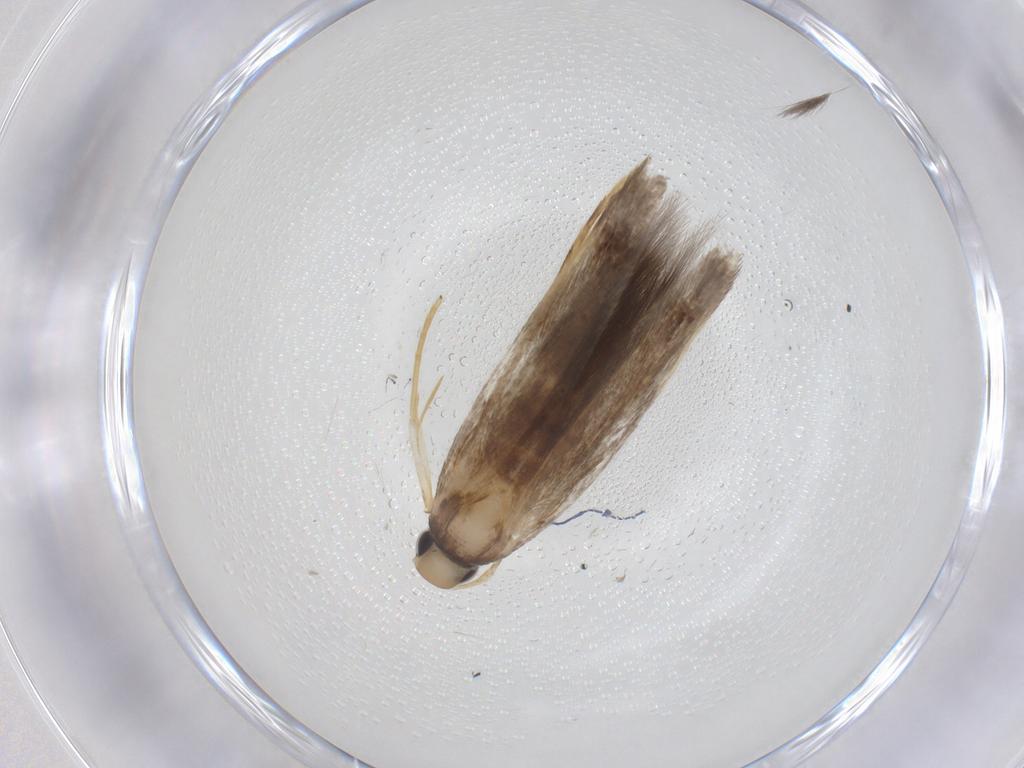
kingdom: Animalia
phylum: Arthropoda
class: Insecta
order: Lepidoptera
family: Cosmopterigidae
